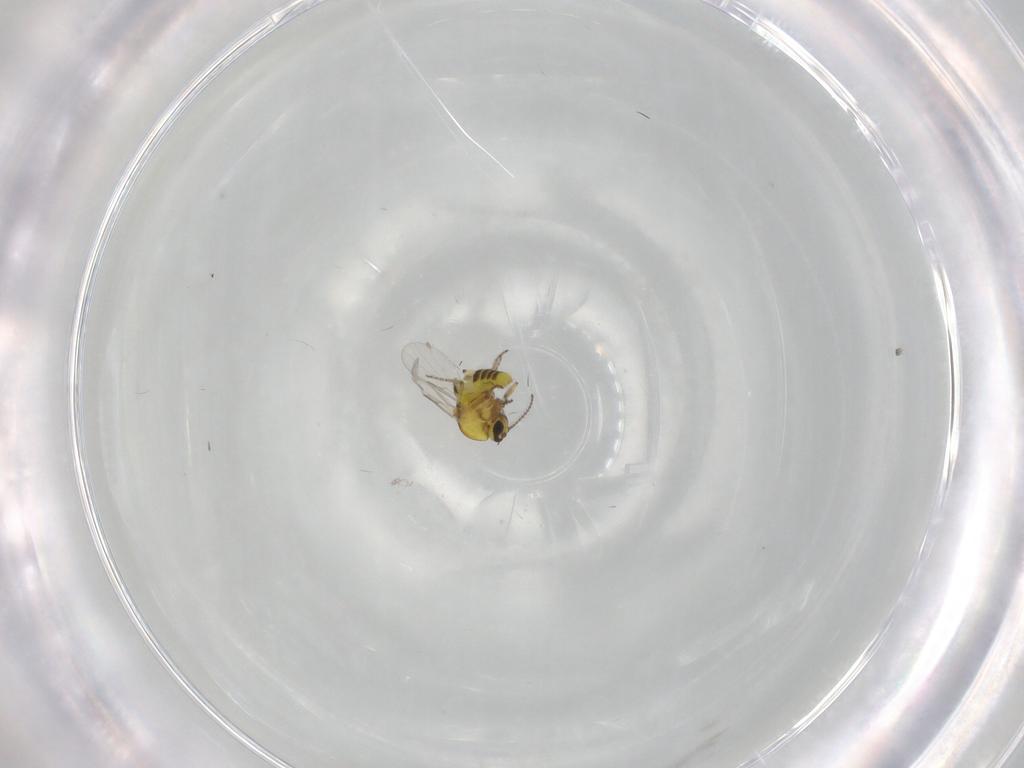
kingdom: Animalia
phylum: Arthropoda
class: Insecta
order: Diptera
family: Ceratopogonidae
